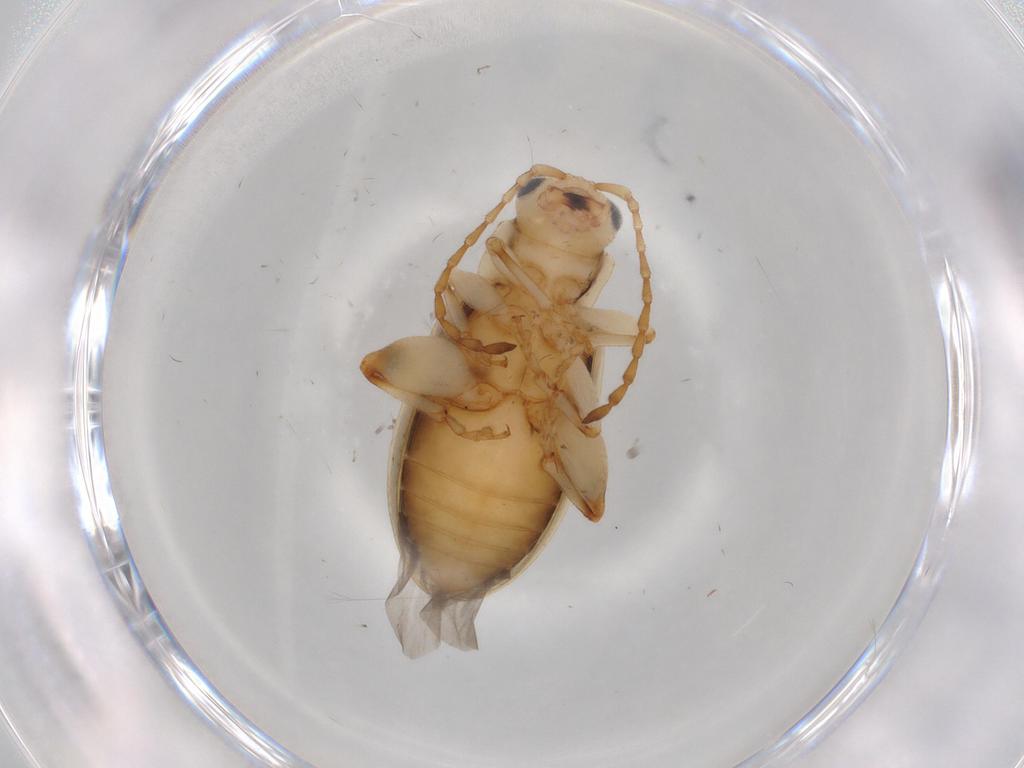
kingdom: Animalia
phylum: Arthropoda
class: Insecta
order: Coleoptera
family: Chrysomelidae
